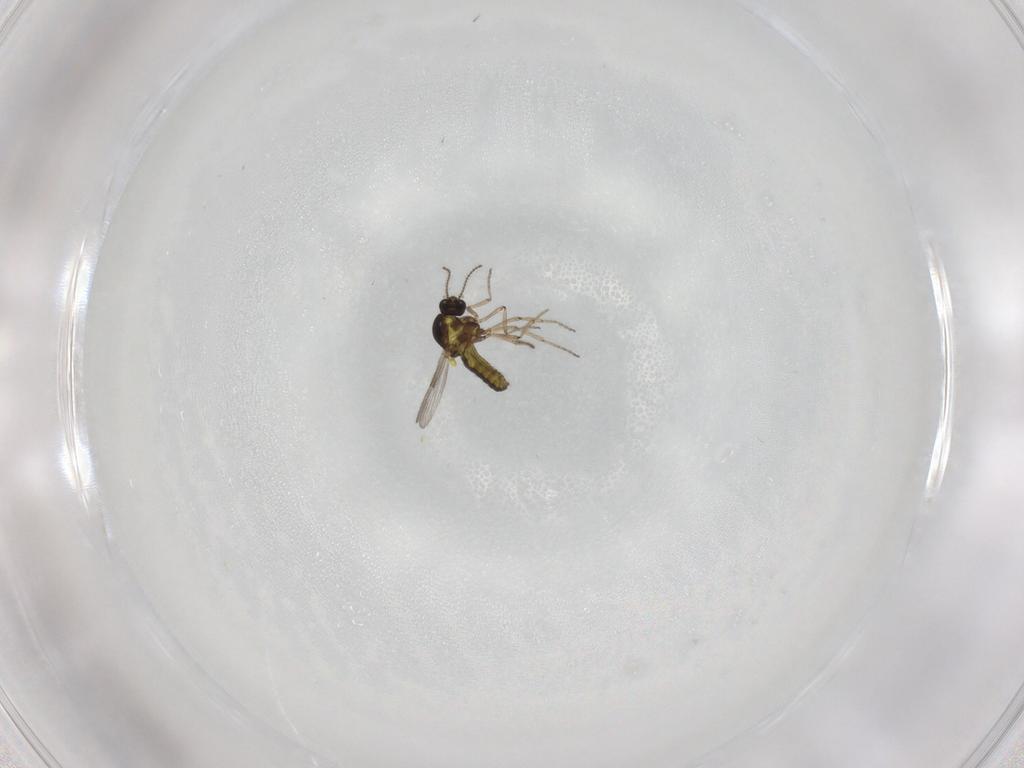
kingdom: Animalia
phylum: Arthropoda
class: Insecta
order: Diptera
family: Ceratopogonidae
